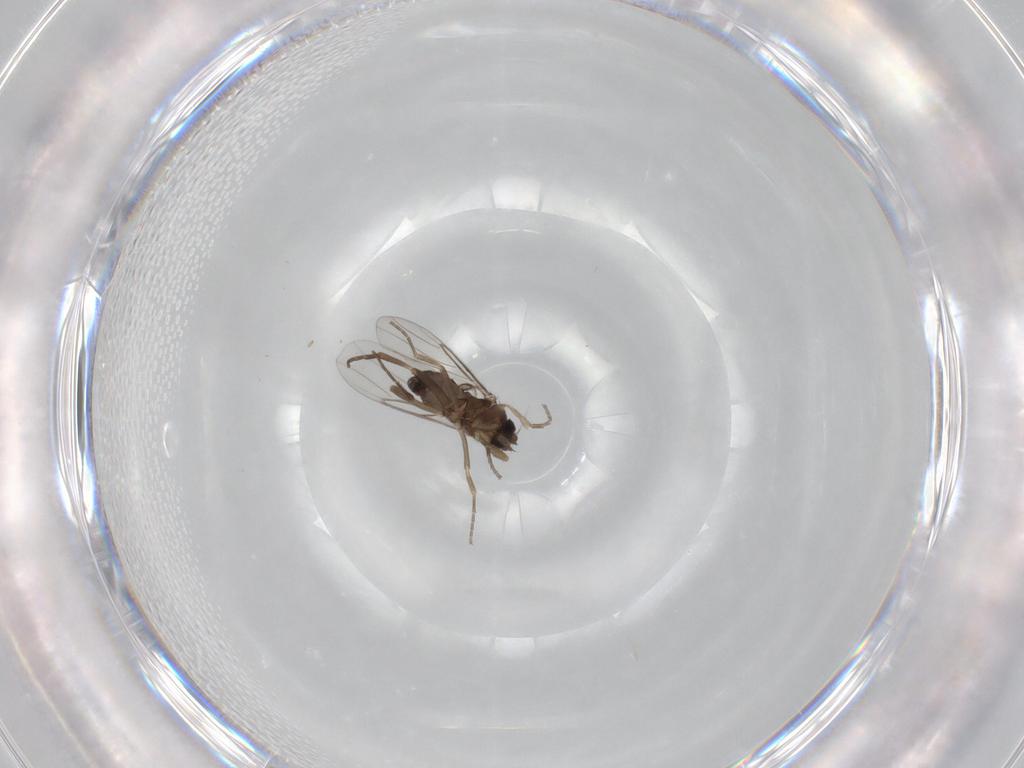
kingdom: Animalia
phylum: Arthropoda
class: Insecta
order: Diptera
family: Phoridae
